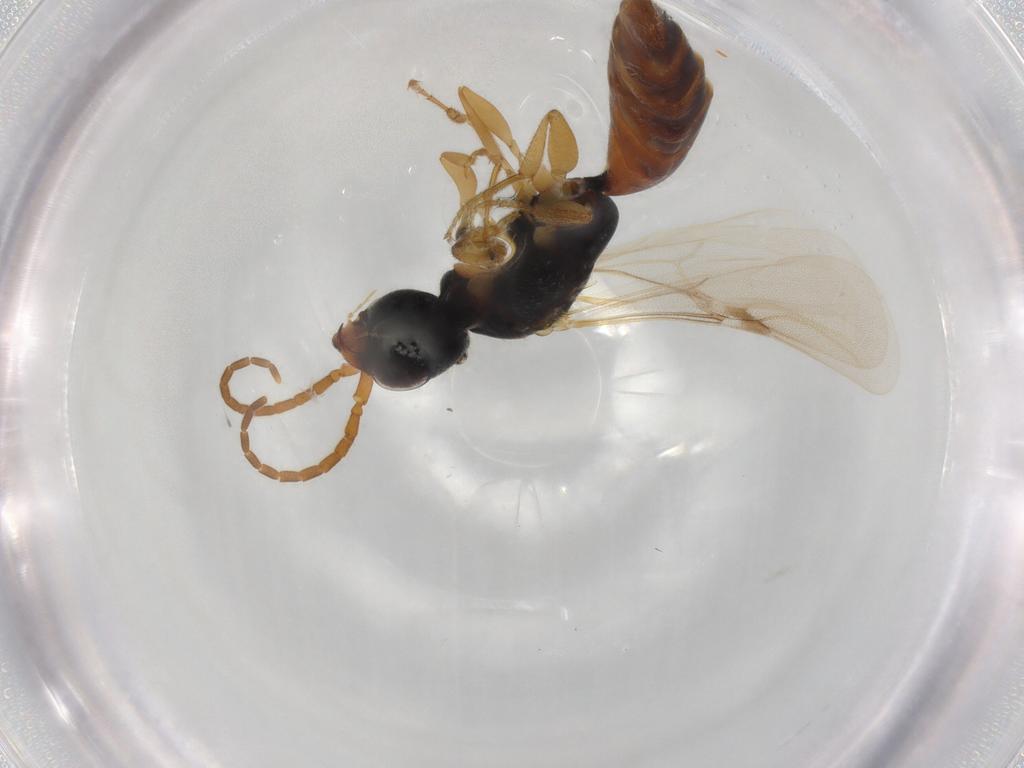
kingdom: Animalia
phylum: Arthropoda
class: Insecta
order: Hymenoptera
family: Bethylidae
